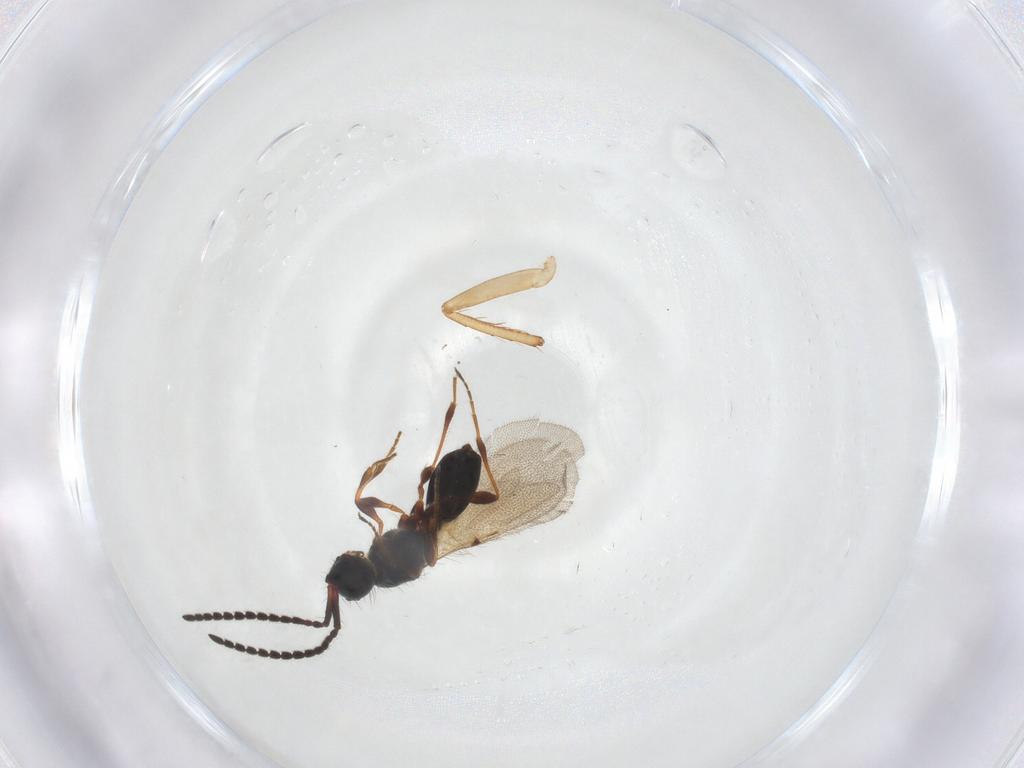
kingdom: Animalia
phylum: Arthropoda
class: Insecta
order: Hymenoptera
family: Diapriidae
